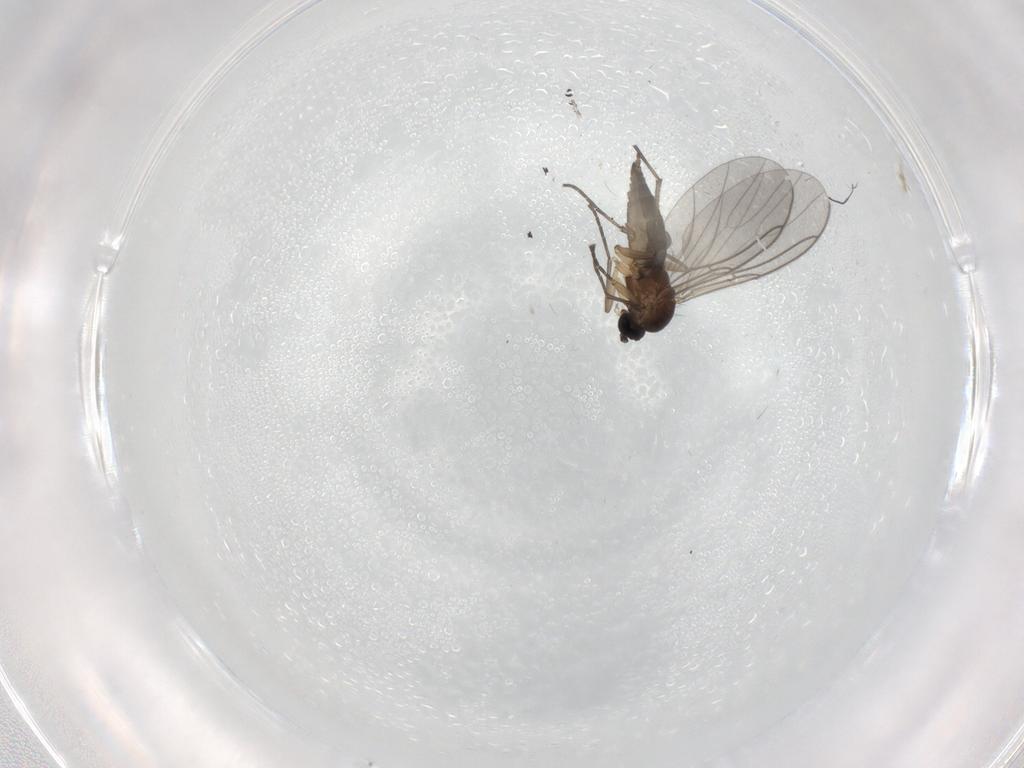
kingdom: Animalia
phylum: Arthropoda
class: Insecta
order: Diptera
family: Sciaridae
